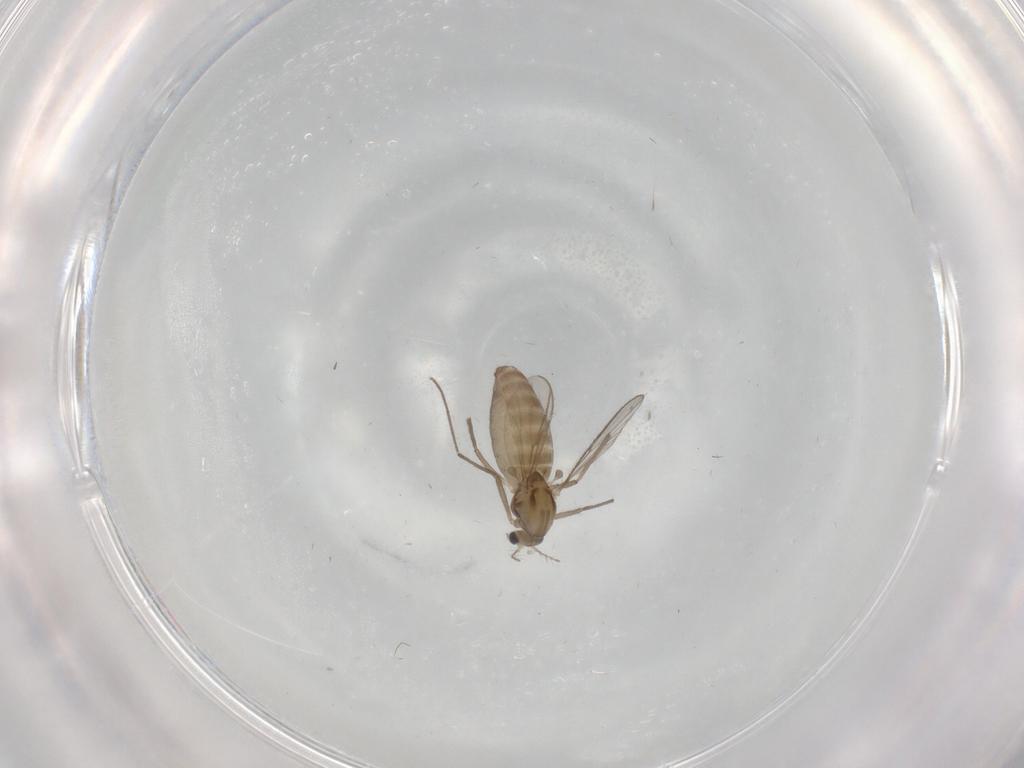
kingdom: Animalia
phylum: Arthropoda
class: Insecta
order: Diptera
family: Chironomidae
